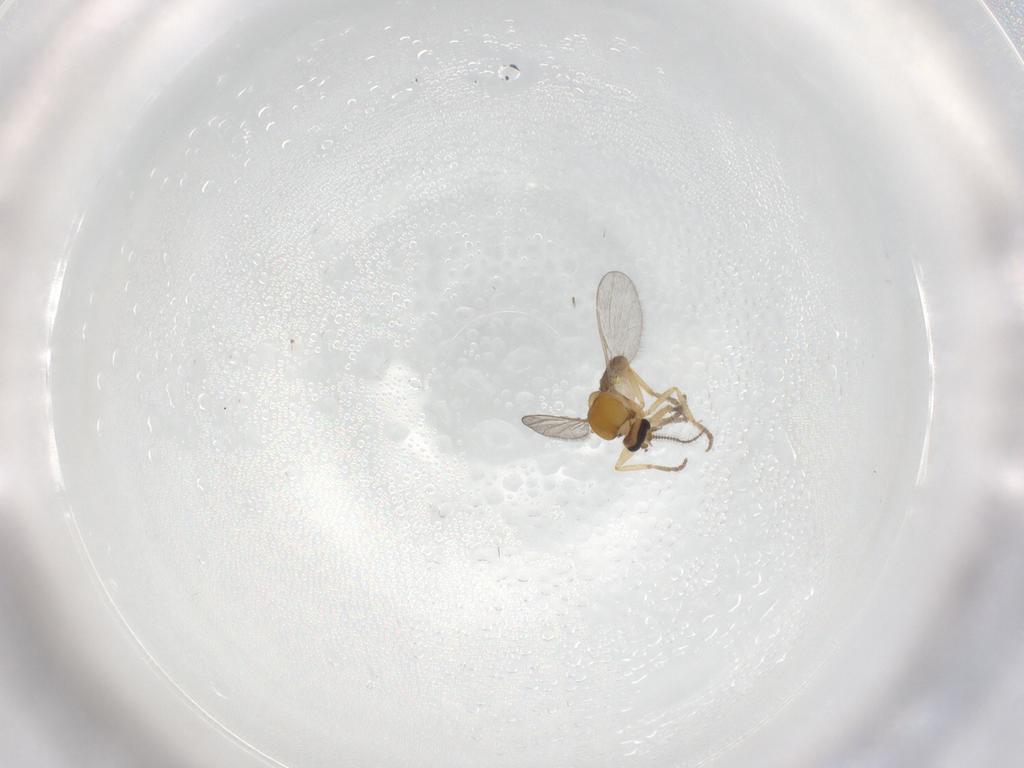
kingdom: Animalia
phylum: Arthropoda
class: Insecta
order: Diptera
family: Ceratopogonidae
